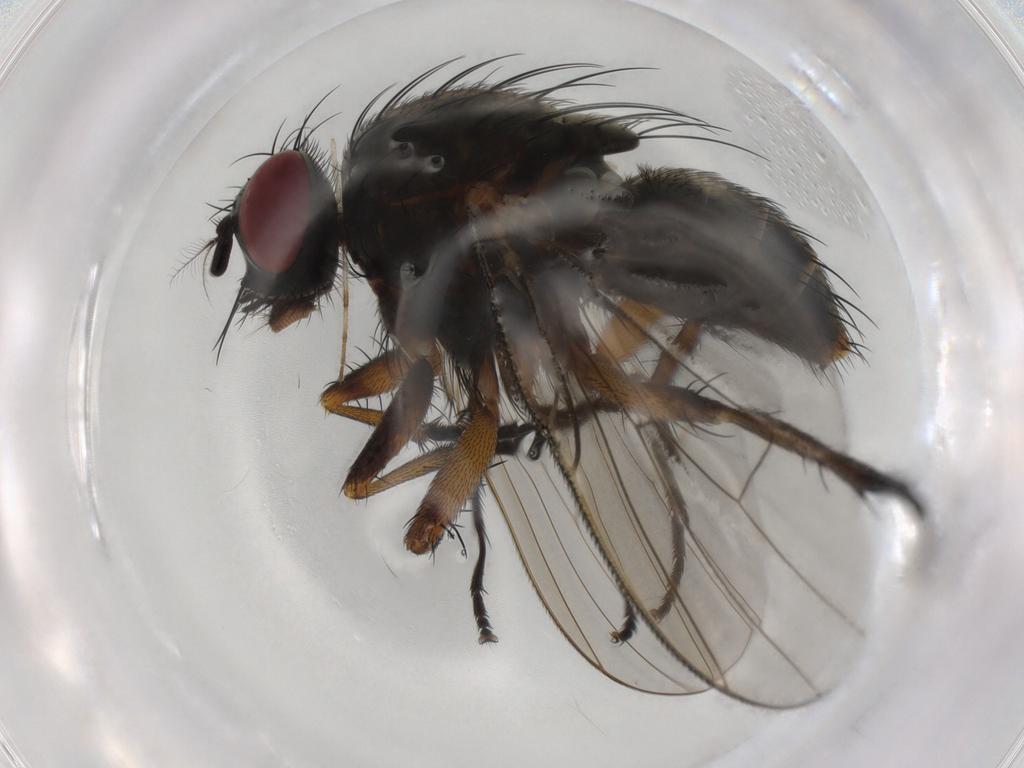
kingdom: Animalia
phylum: Arthropoda
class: Insecta
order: Diptera
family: Muscidae
